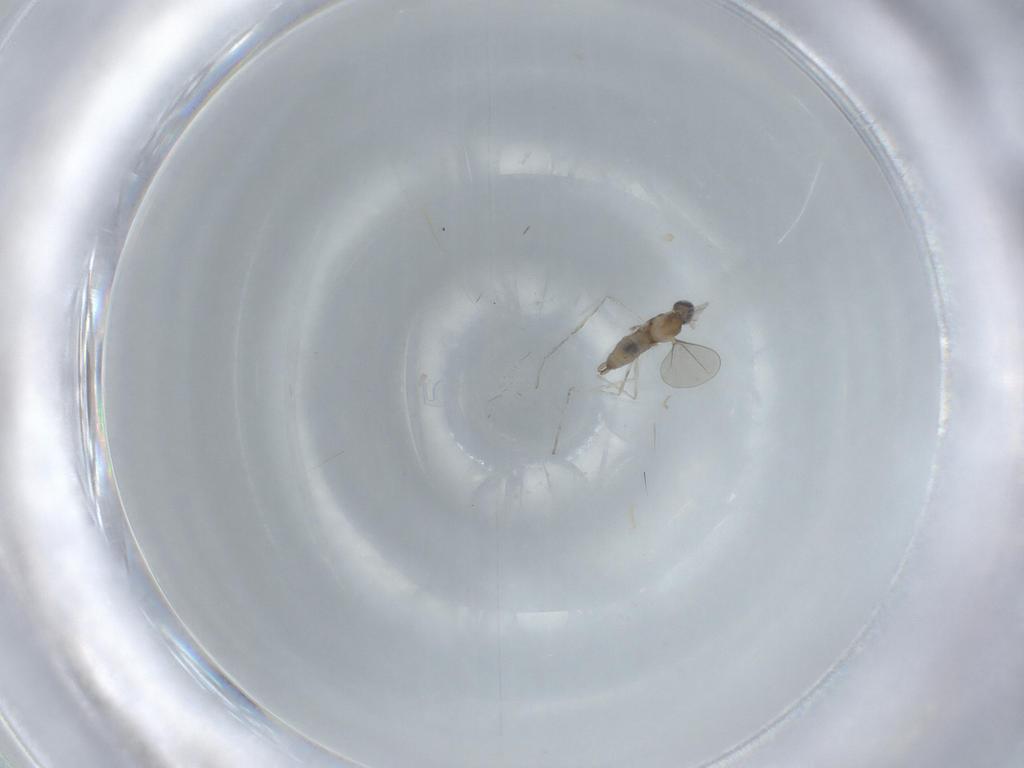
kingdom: Animalia
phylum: Arthropoda
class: Insecta
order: Diptera
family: Cecidomyiidae
